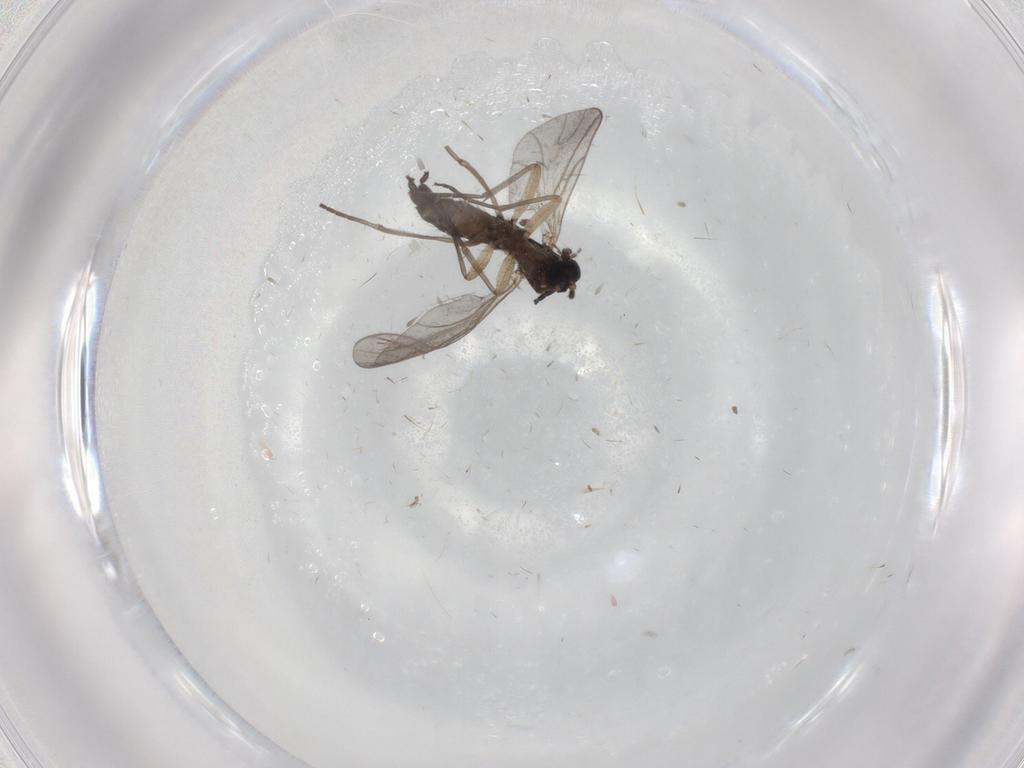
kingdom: Animalia
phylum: Arthropoda
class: Insecta
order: Diptera
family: Sciaridae
